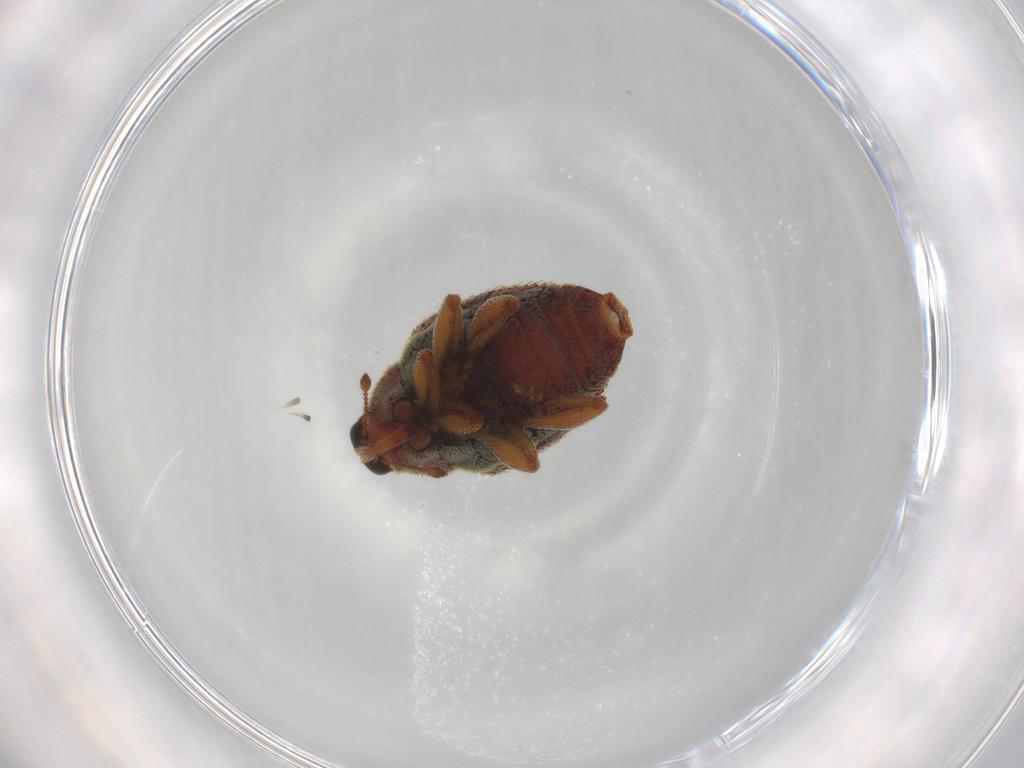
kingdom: Animalia
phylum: Arthropoda
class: Insecta
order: Coleoptera
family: Curculionidae
